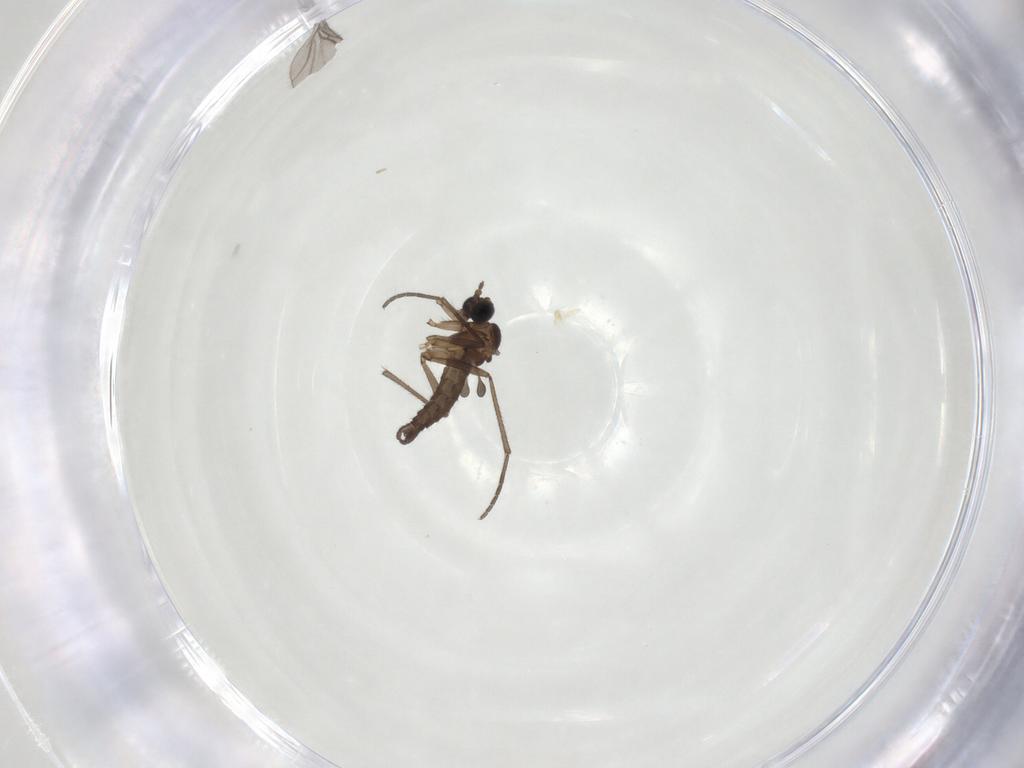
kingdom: Animalia
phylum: Arthropoda
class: Insecta
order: Diptera
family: Sciaridae
